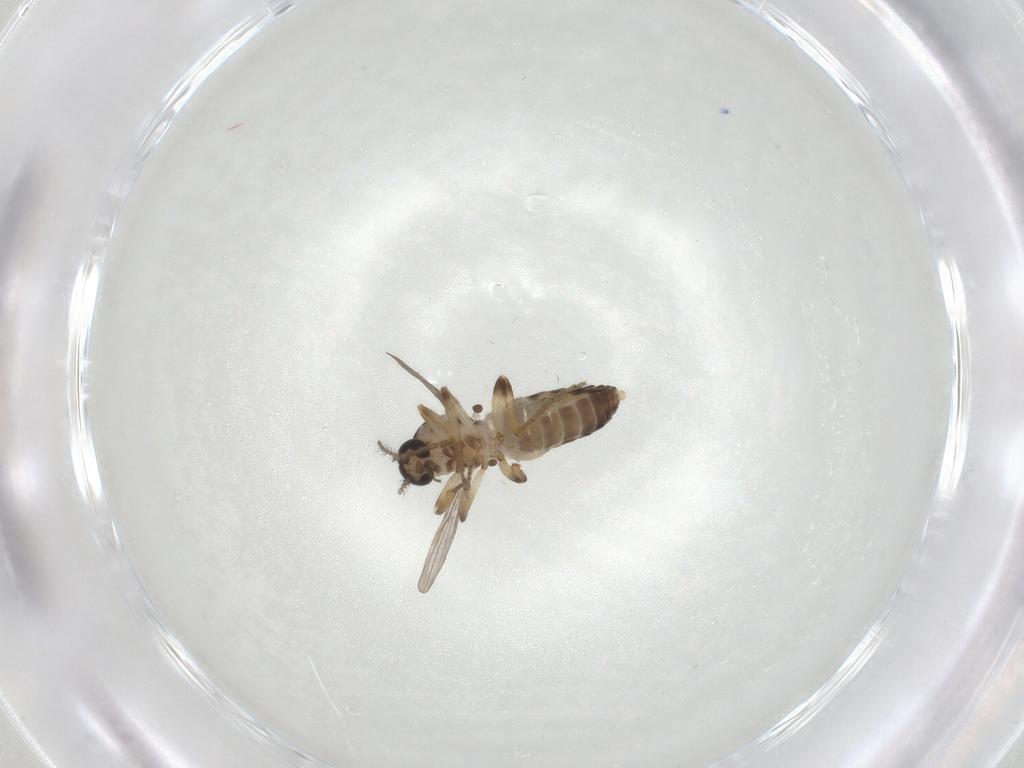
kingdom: Animalia
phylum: Arthropoda
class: Insecta
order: Diptera
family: Ceratopogonidae
